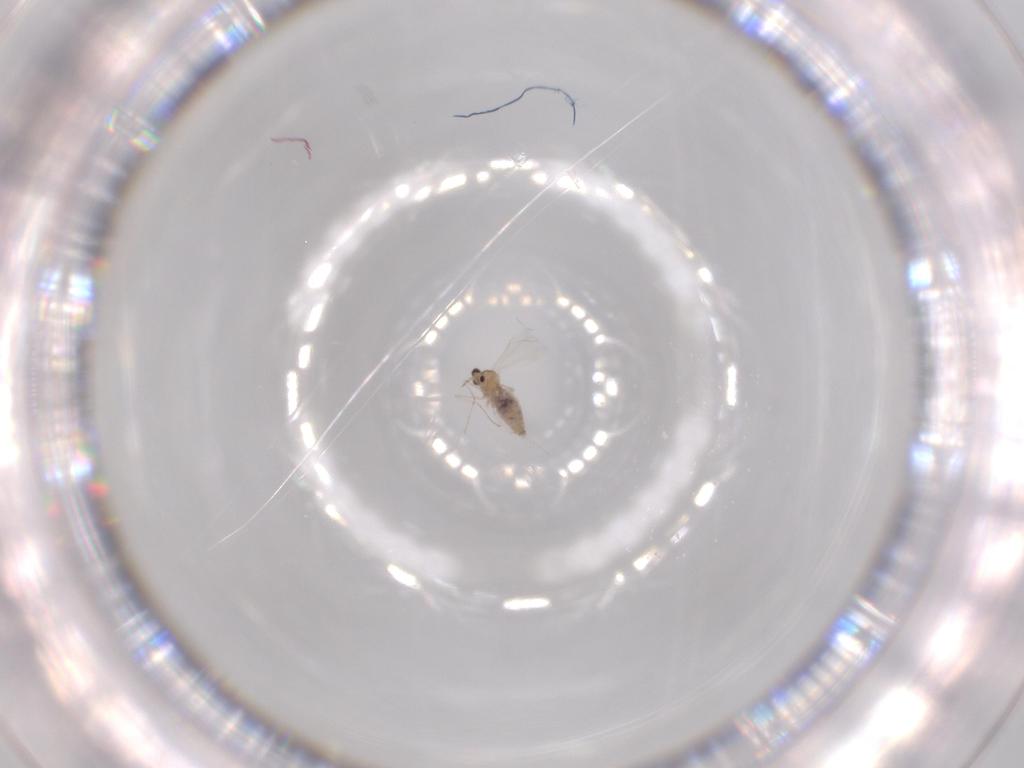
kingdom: Animalia
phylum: Arthropoda
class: Insecta
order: Diptera
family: Cecidomyiidae
